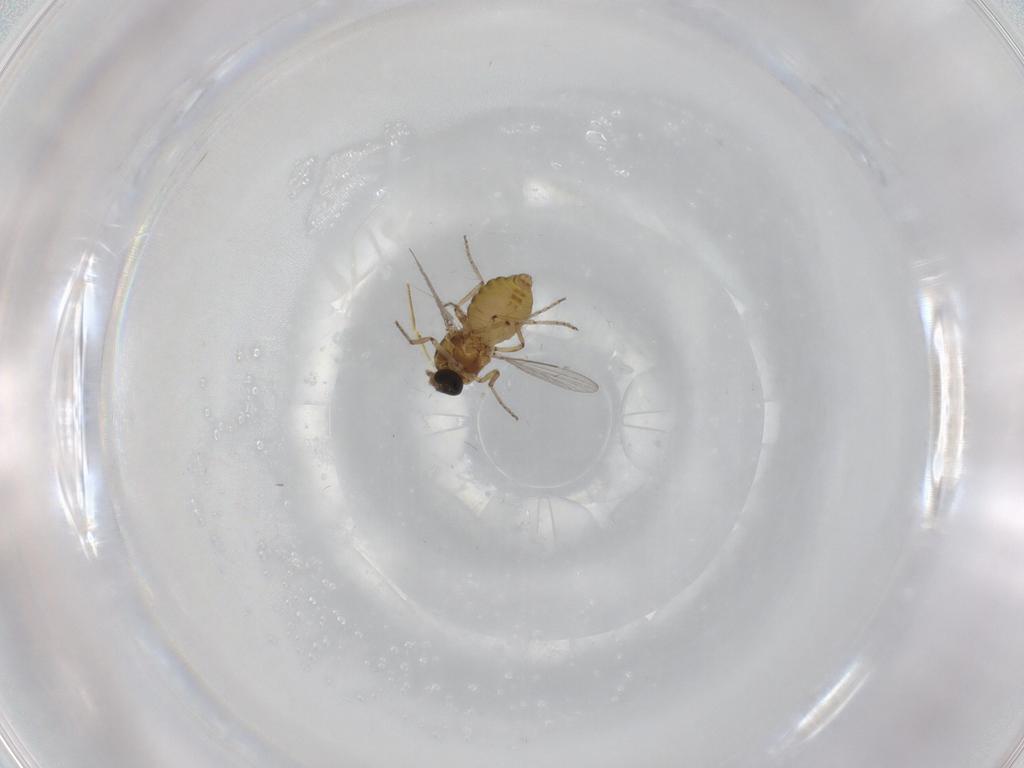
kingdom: Animalia
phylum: Arthropoda
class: Insecta
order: Diptera
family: Ceratopogonidae
